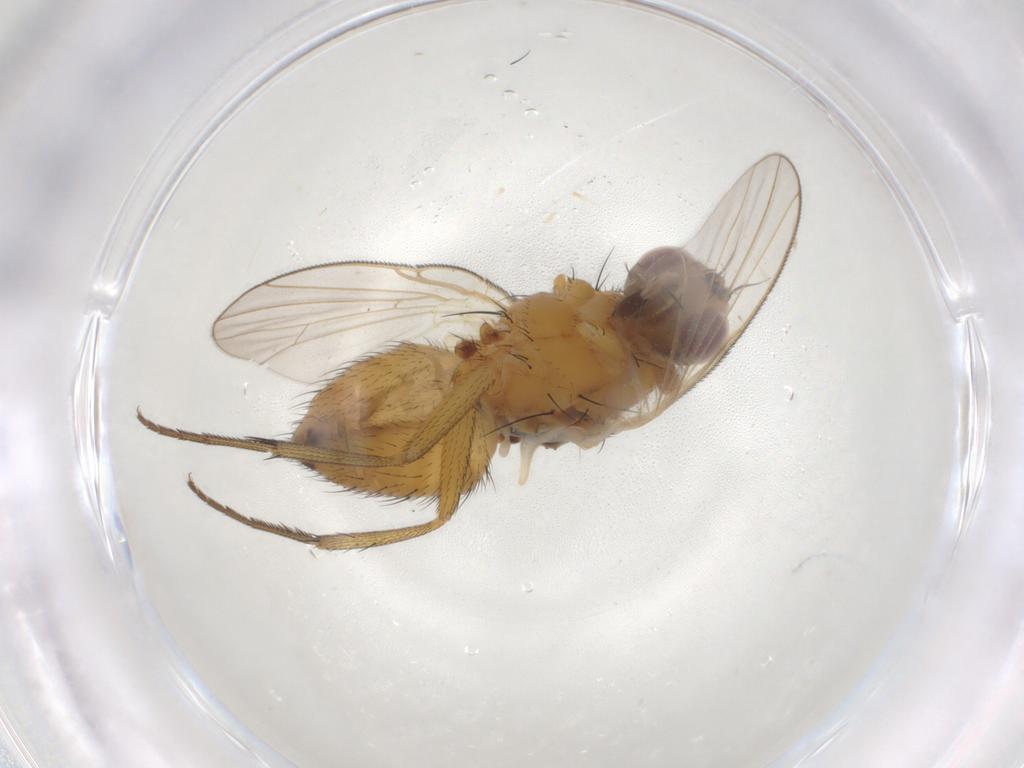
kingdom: Animalia
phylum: Arthropoda
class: Insecta
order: Diptera
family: Muscidae
